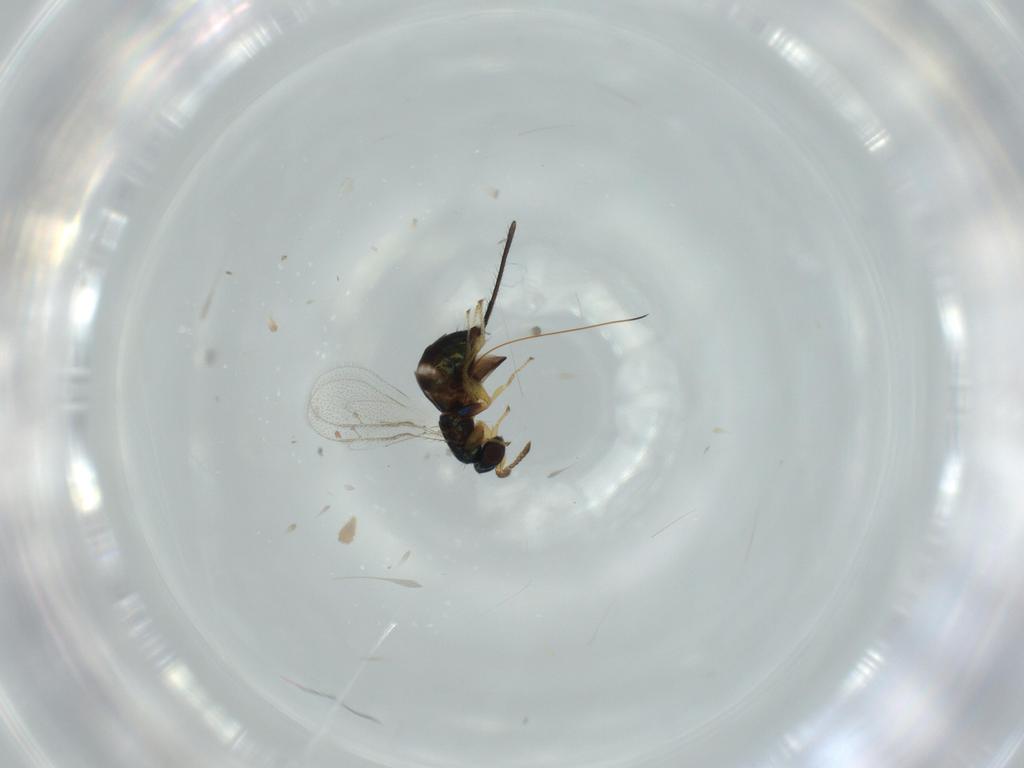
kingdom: Animalia
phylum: Arthropoda
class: Insecta
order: Hymenoptera
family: Torymidae
